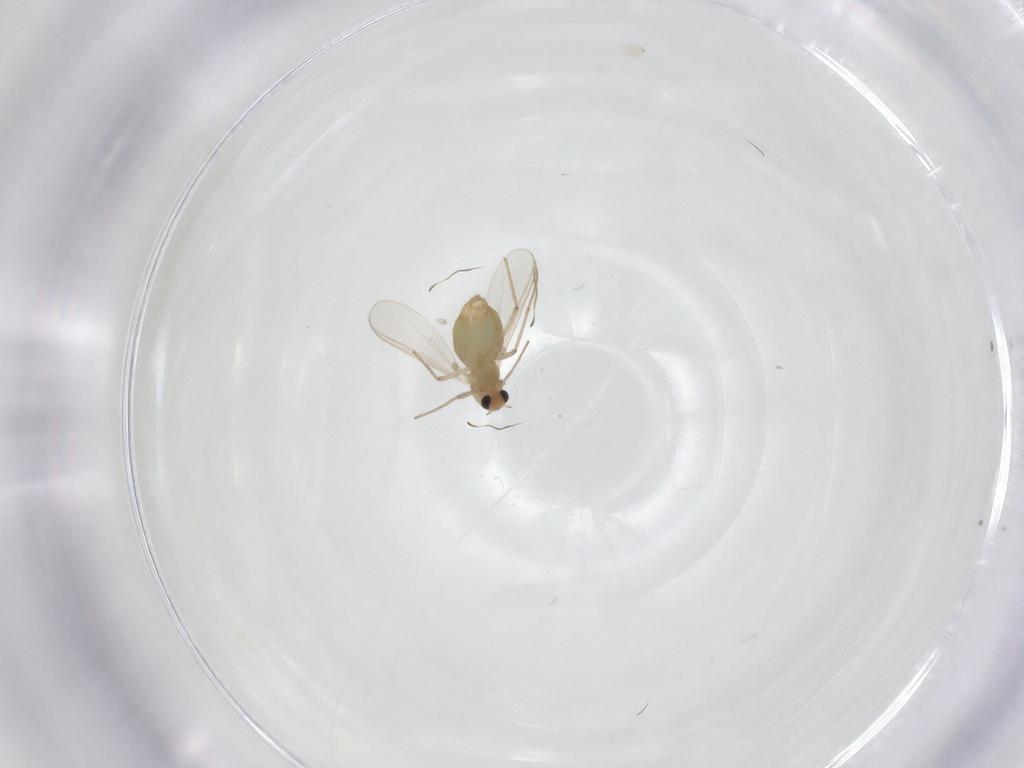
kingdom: Animalia
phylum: Arthropoda
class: Insecta
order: Diptera
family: Chironomidae
